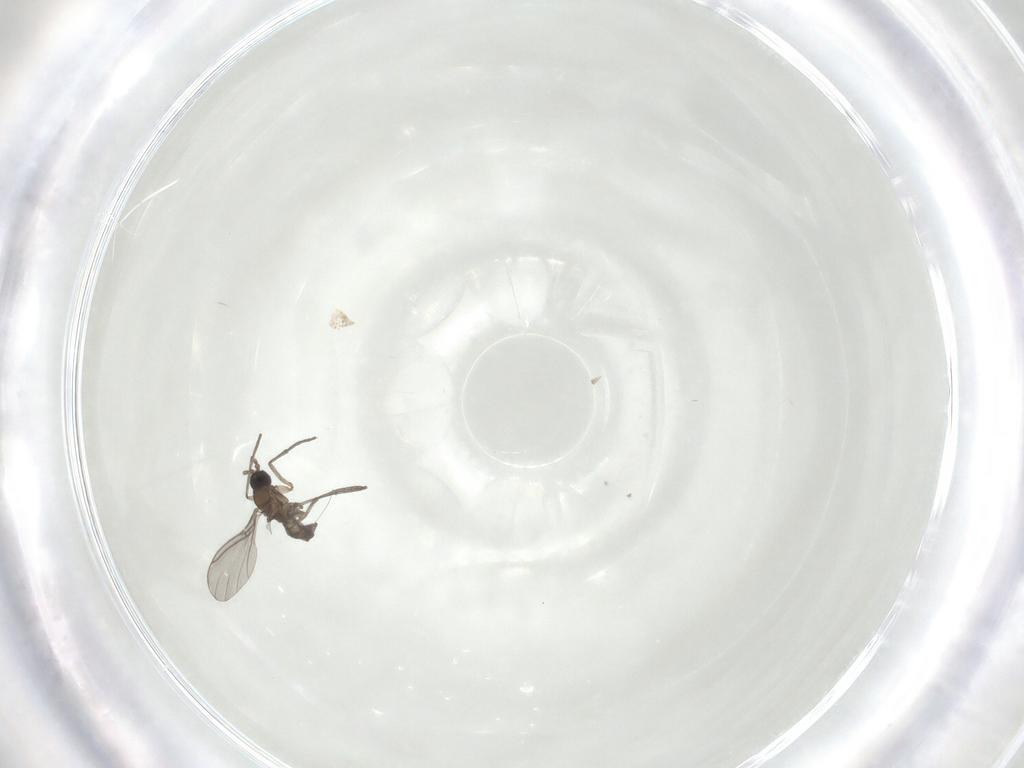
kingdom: Animalia
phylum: Arthropoda
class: Insecta
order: Diptera
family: Sciaridae
